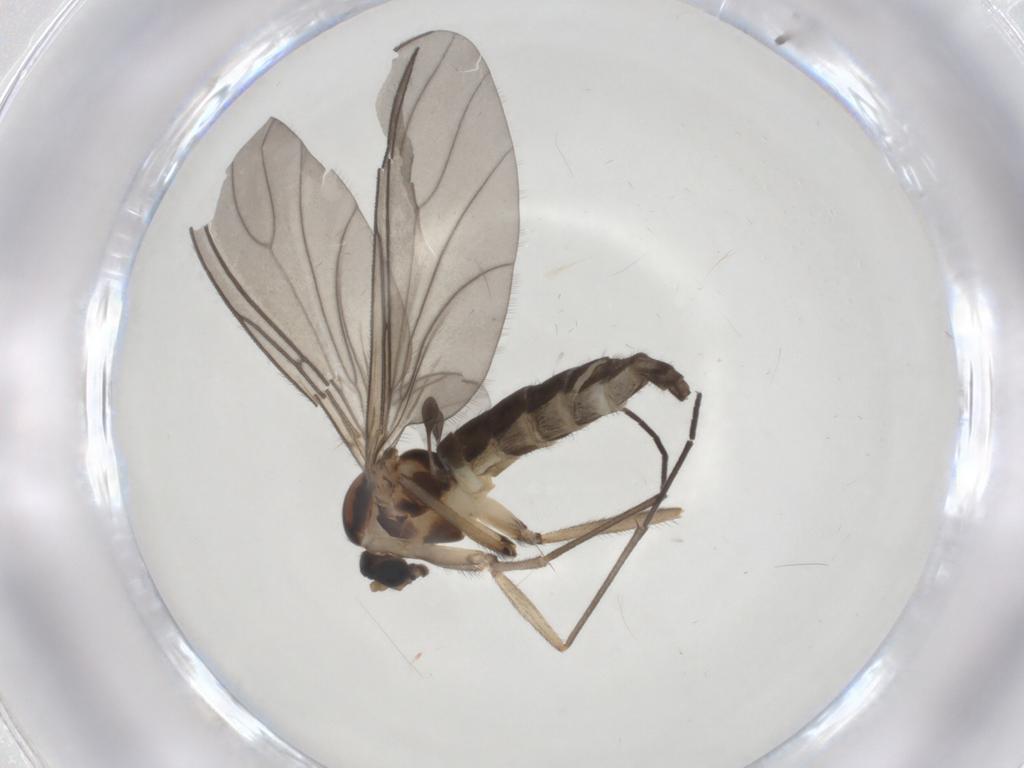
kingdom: Animalia
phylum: Arthropoda
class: Insecta
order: Diptera
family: Sciaridae
